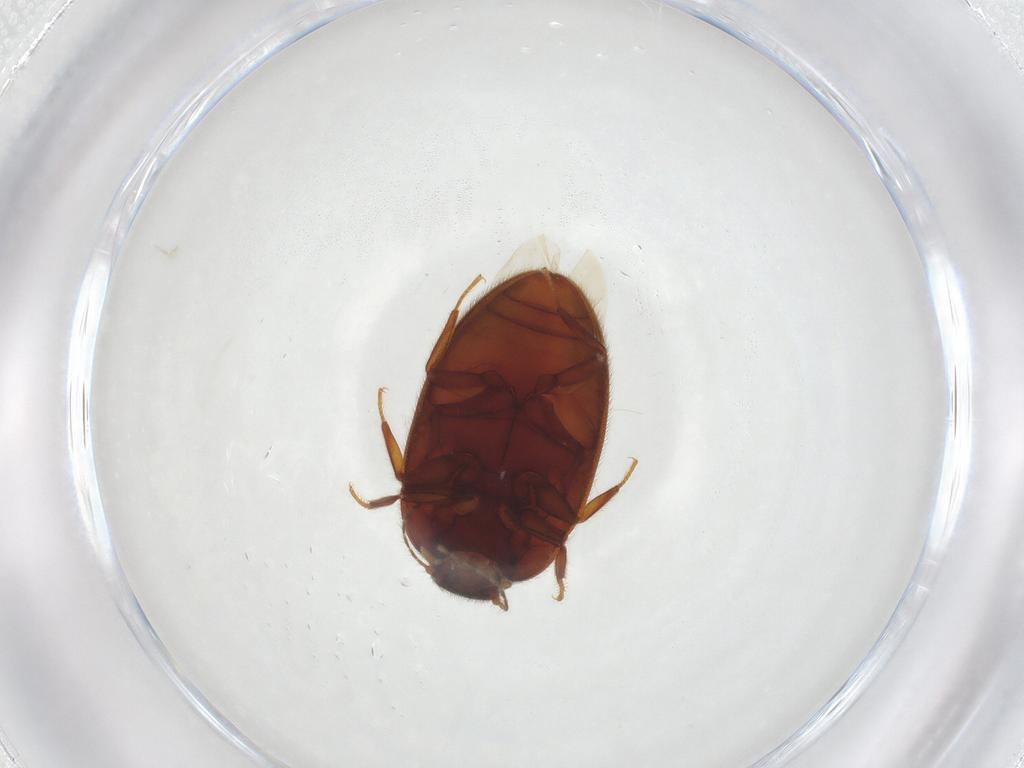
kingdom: Animalia
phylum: Arthropoda
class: Insecta
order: Coleoptera
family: Limnichidae
